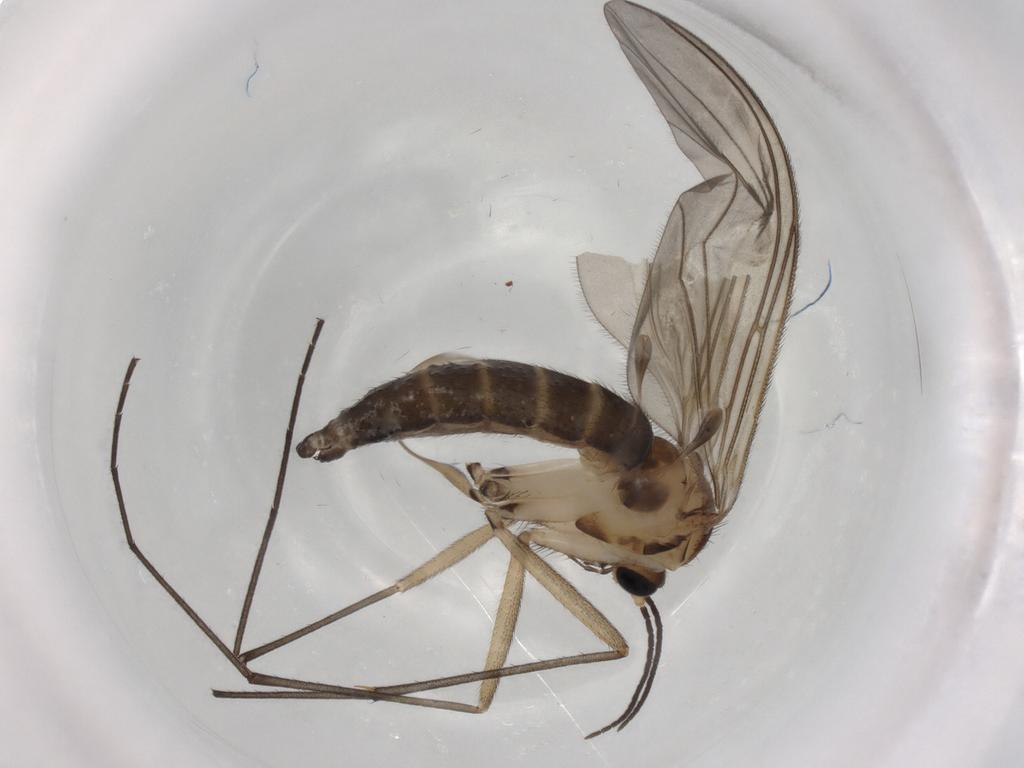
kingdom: Animalia
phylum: Arthropoda
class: Insecta
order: Diptera
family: Sciaridae
